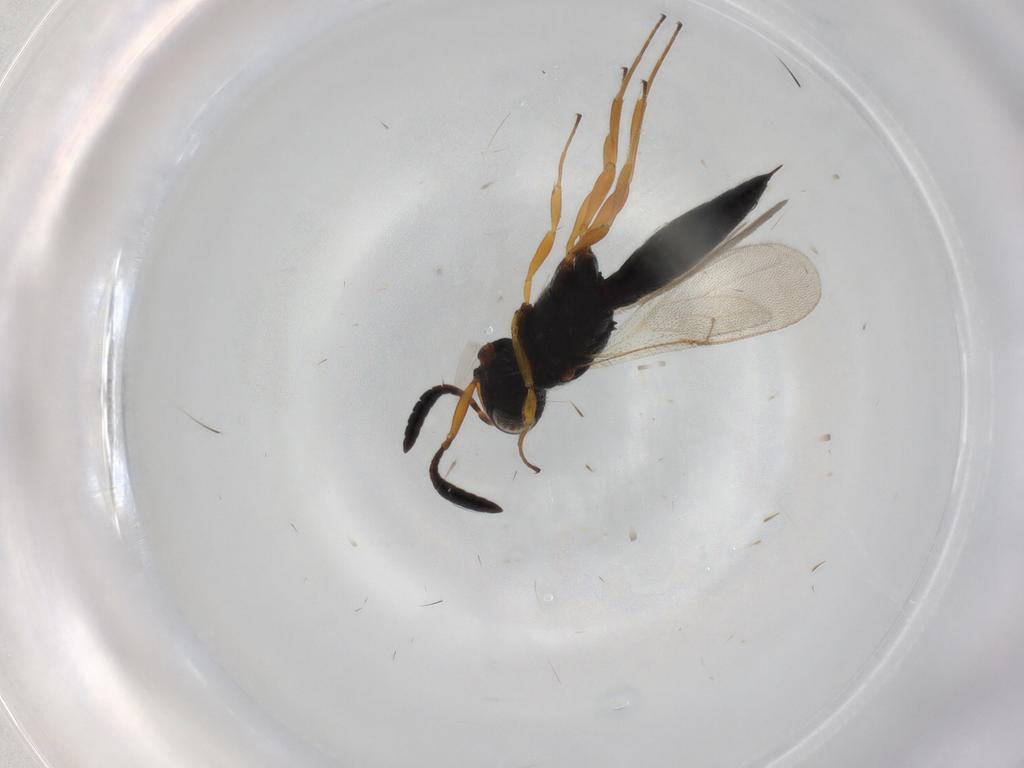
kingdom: Animalia
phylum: Arthropoda
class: Insecta
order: Hymenoptera
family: Scelionidae
